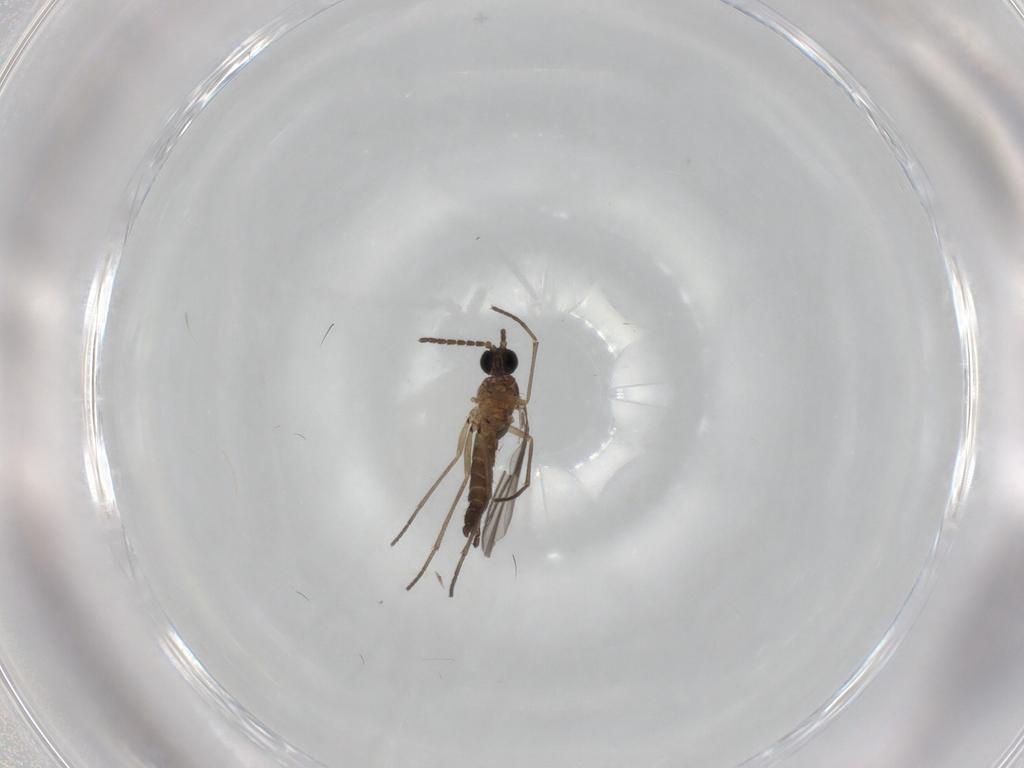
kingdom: Animalia
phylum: Arthropoda
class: Insecta
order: Diptera
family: Sciaridae
